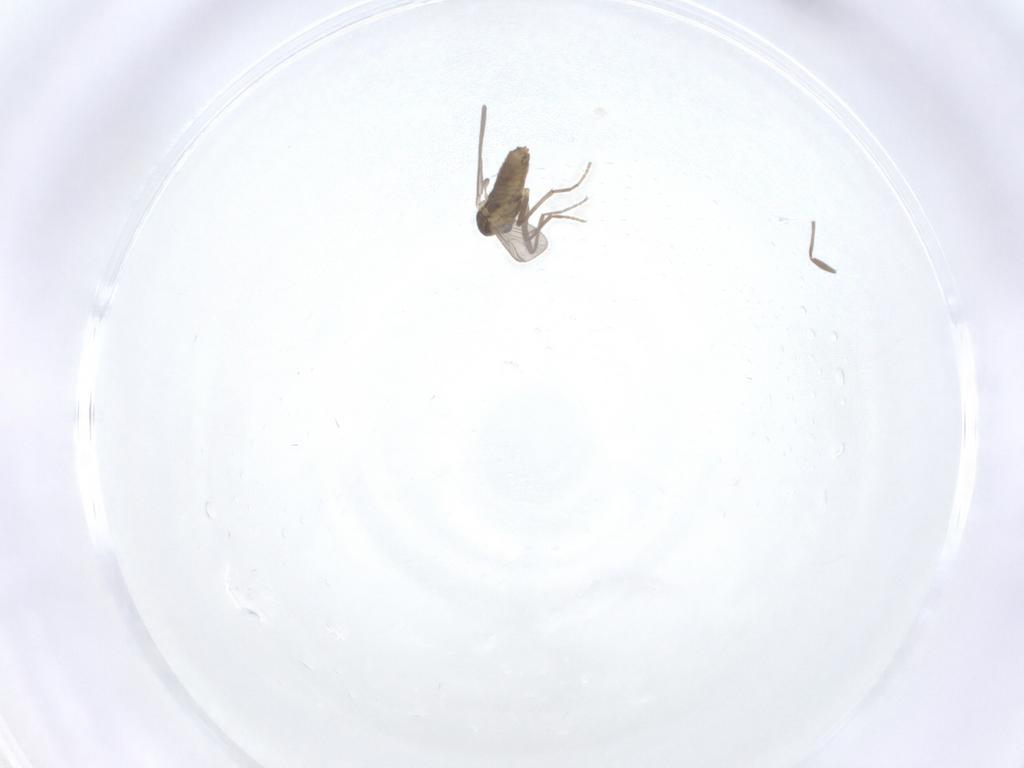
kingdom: Animalia
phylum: Arthropoda
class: Insecta
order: Diptera
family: Chironomidae
